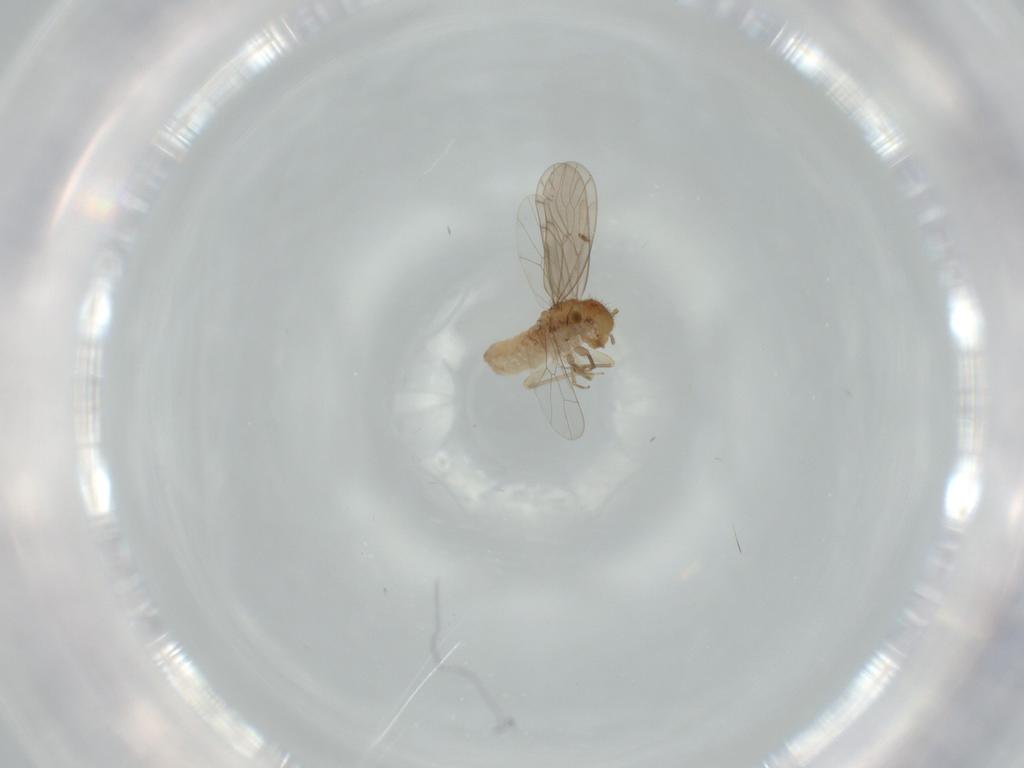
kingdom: Animalia
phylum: Arthropoda
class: Insecta
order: Psocodea
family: Ectopsocidae
